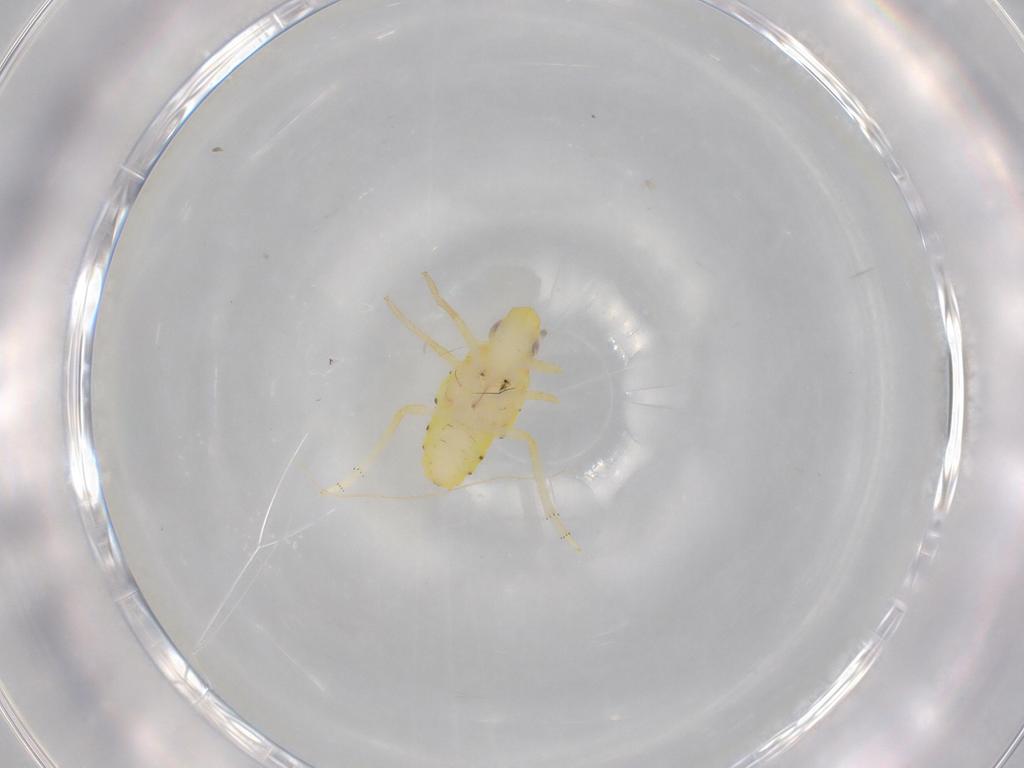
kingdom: Animalia
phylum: Arthropoda
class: Insecta
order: Hemiptera
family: Tropiduchidae
